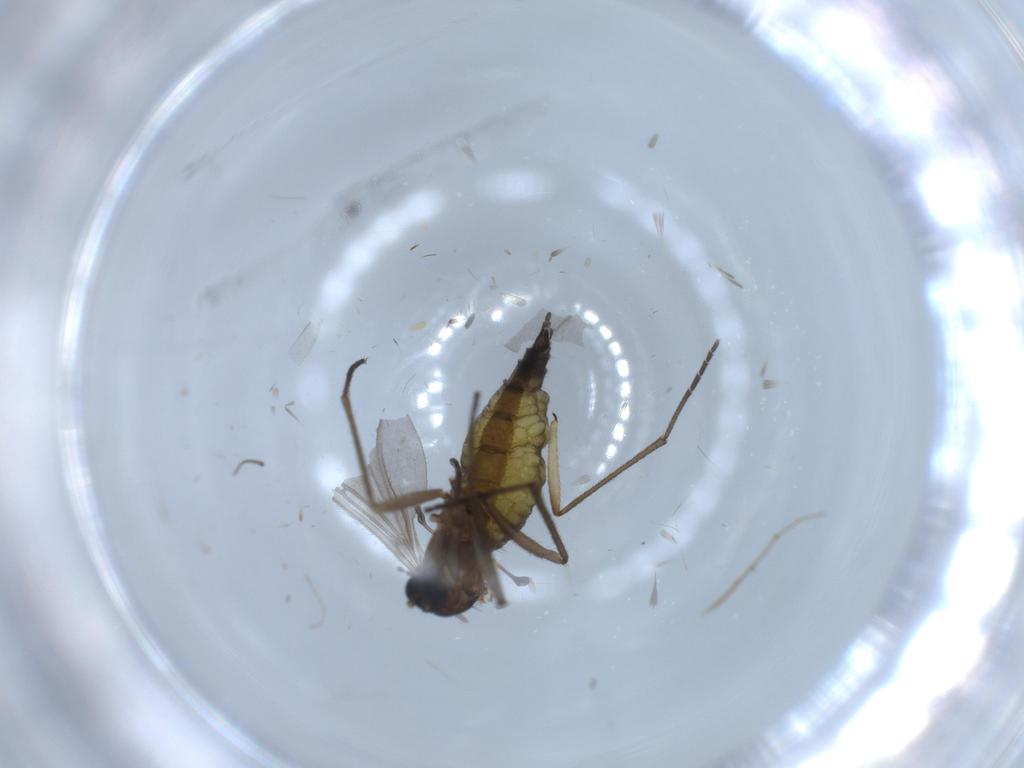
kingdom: Animalia
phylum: Arthropoda
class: Insecta
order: Diptera
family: Sciaridae
